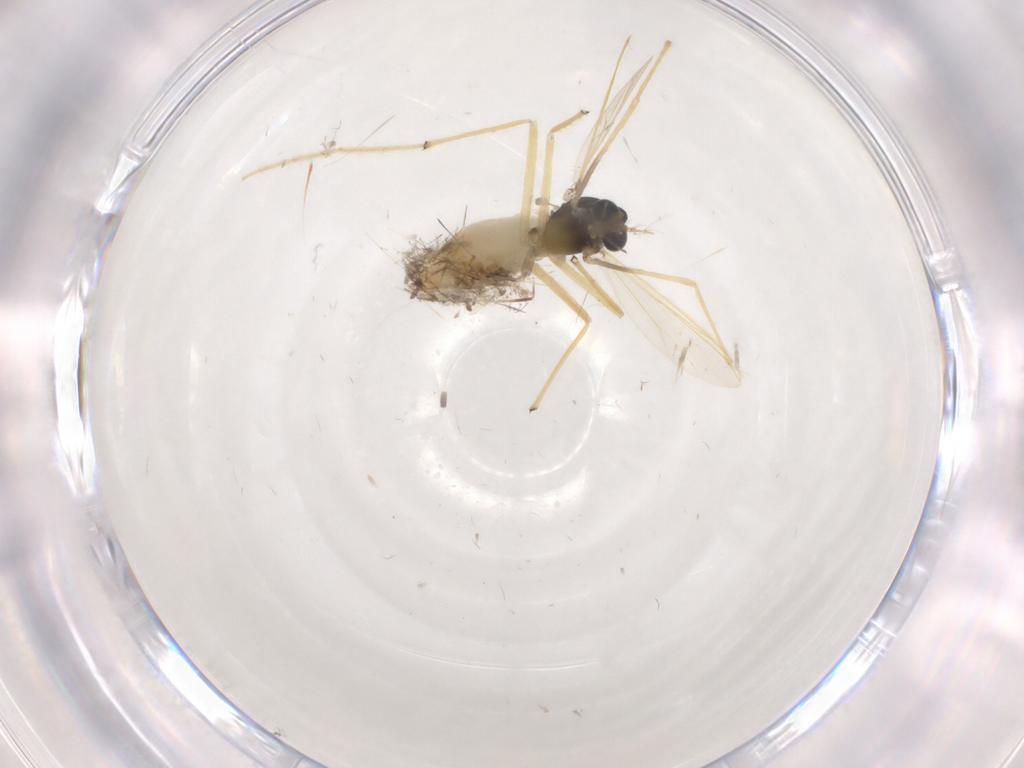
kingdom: Animalia
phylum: Arthropoda
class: Insecta
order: Diptera
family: Chironomidae
